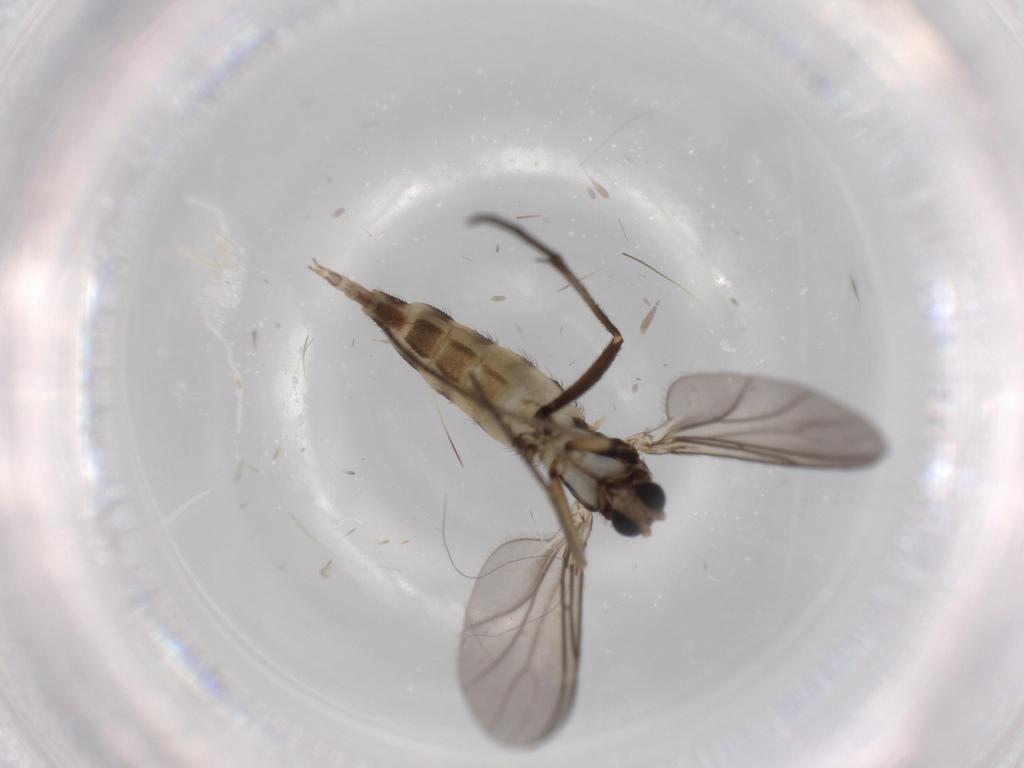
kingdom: Animalia
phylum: Arthropoda
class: Insecta
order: Diptera
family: Sciaridae
